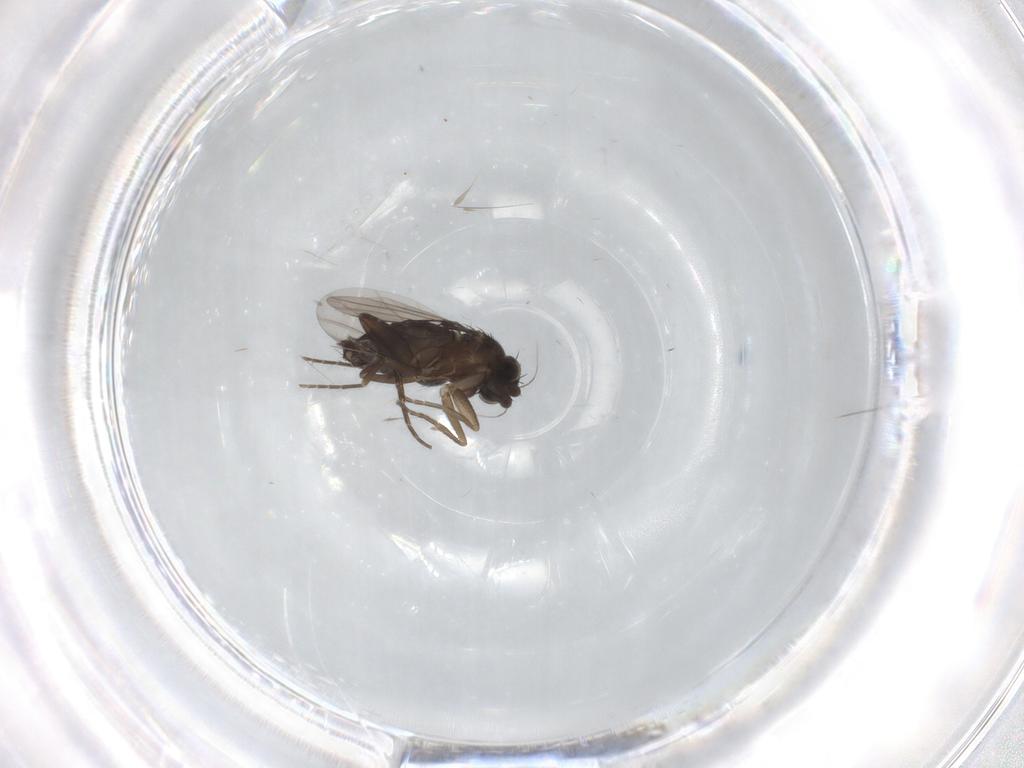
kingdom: Animalia
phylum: Arthropoda
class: Insecta
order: Diptera
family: Phoridae
